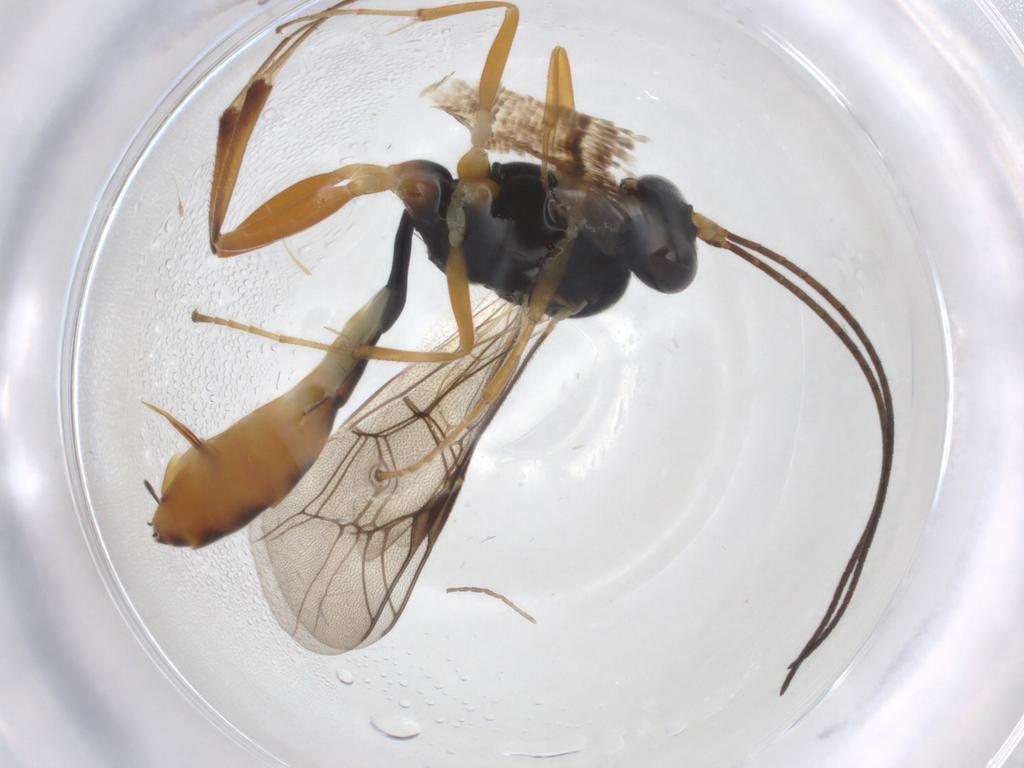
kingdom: Animalia
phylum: Arthropoda
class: Insecta
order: Hymenoptera
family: Ichneumonidae
